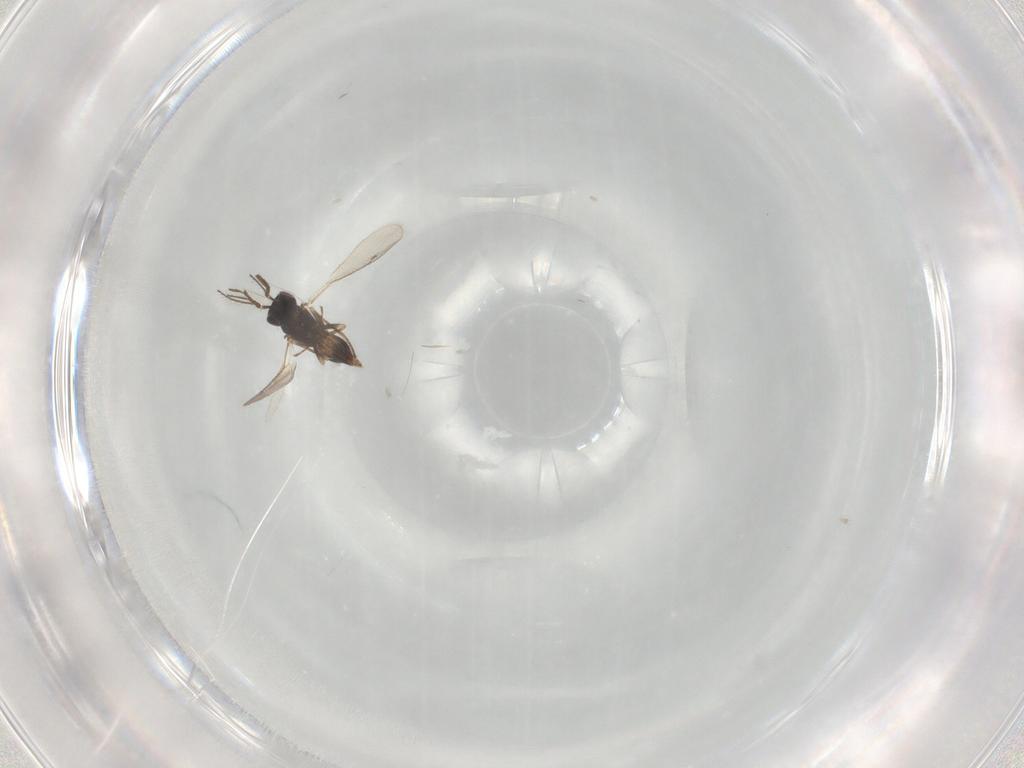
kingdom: Animalia
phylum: Arthropoda
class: Insecta
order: Hymenoptera
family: Eulophidae
